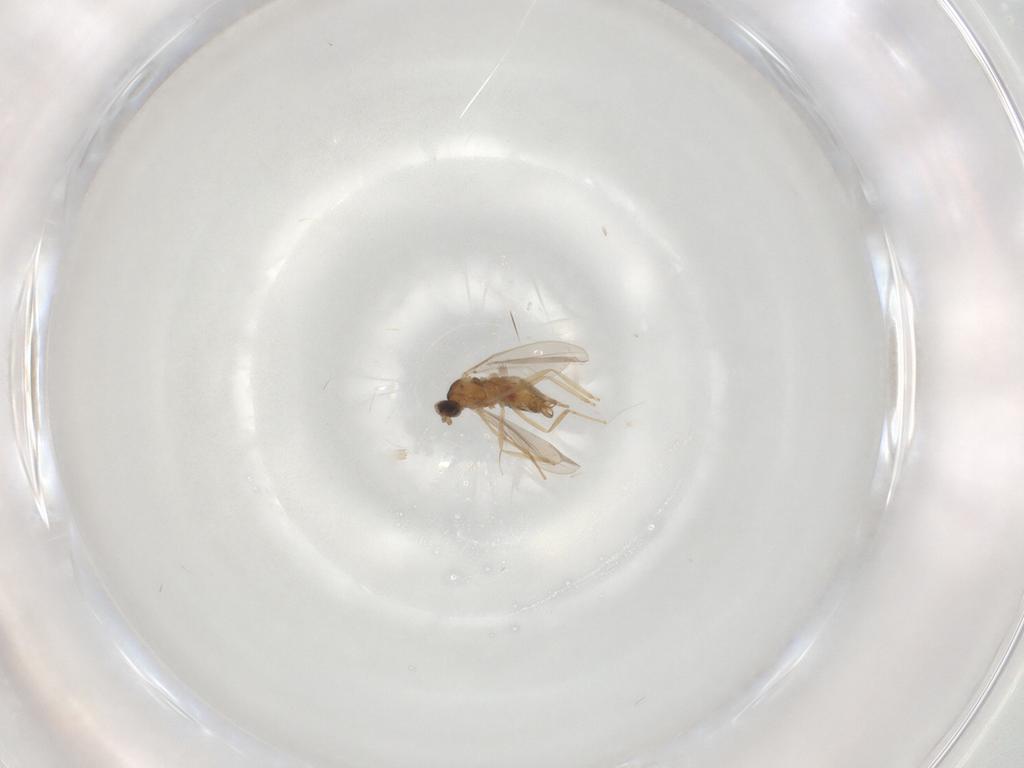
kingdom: Animalia
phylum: Arthropoda
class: Insecta
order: Diptera
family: Cecidomyiidae
